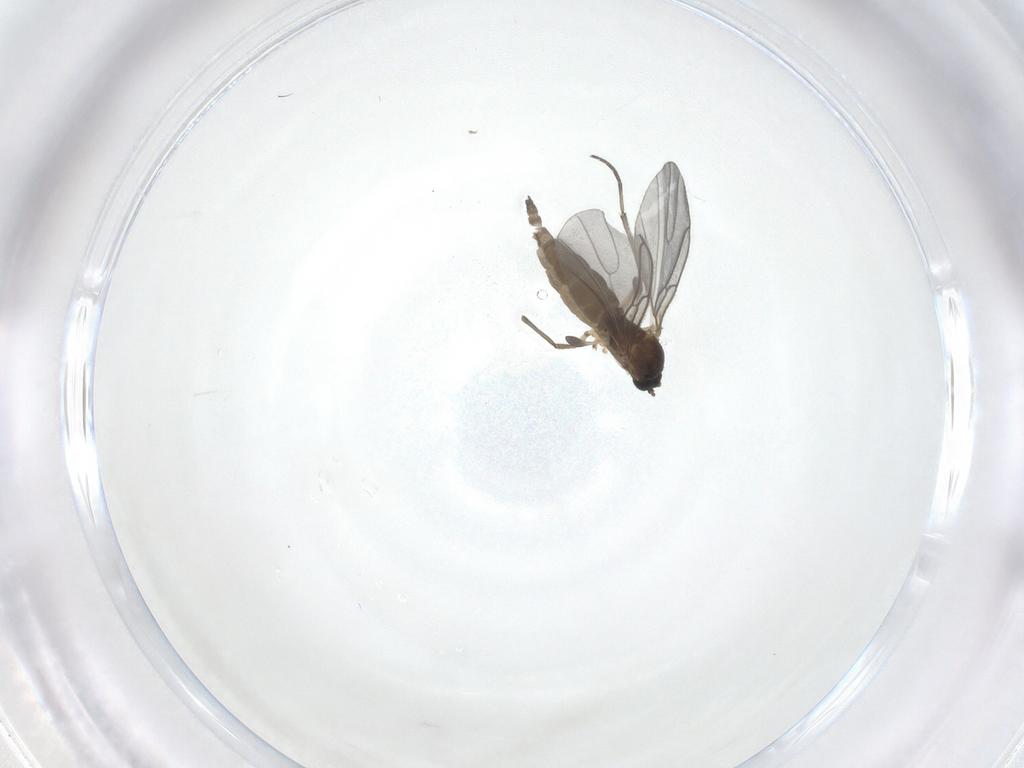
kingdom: Animalia
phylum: Arthropoda
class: Insecta
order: Diptera
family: Sciaridae
